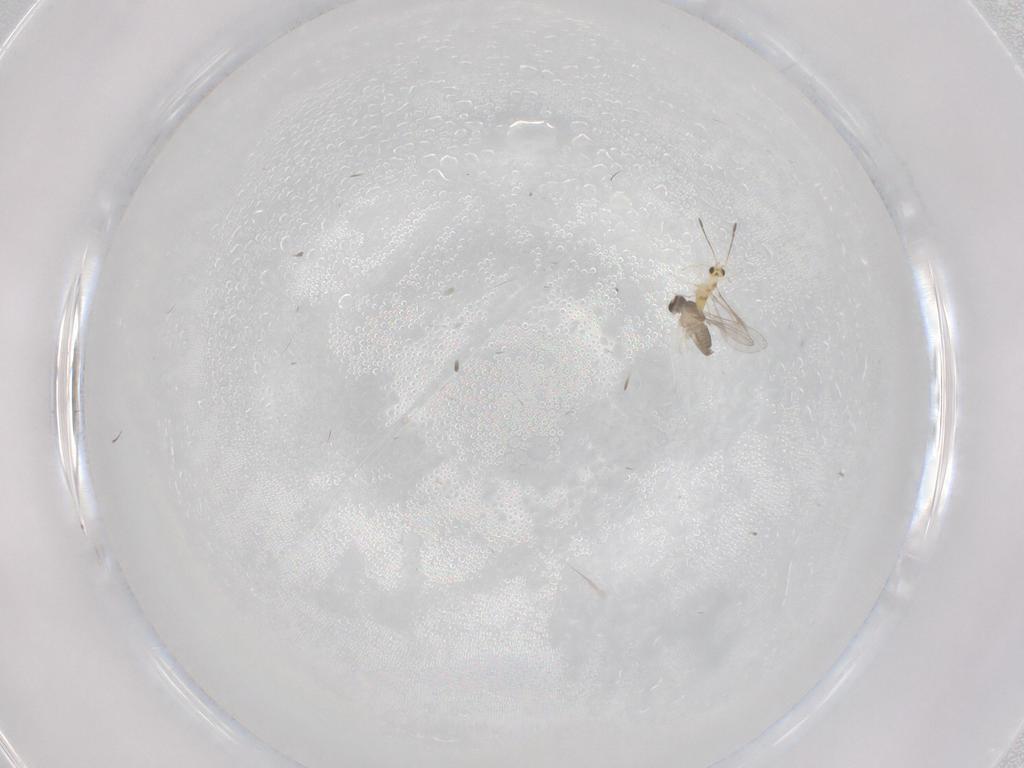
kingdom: Animalia
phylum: Arthropoda
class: Insecta
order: Diptera
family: Cecidomyiidae
